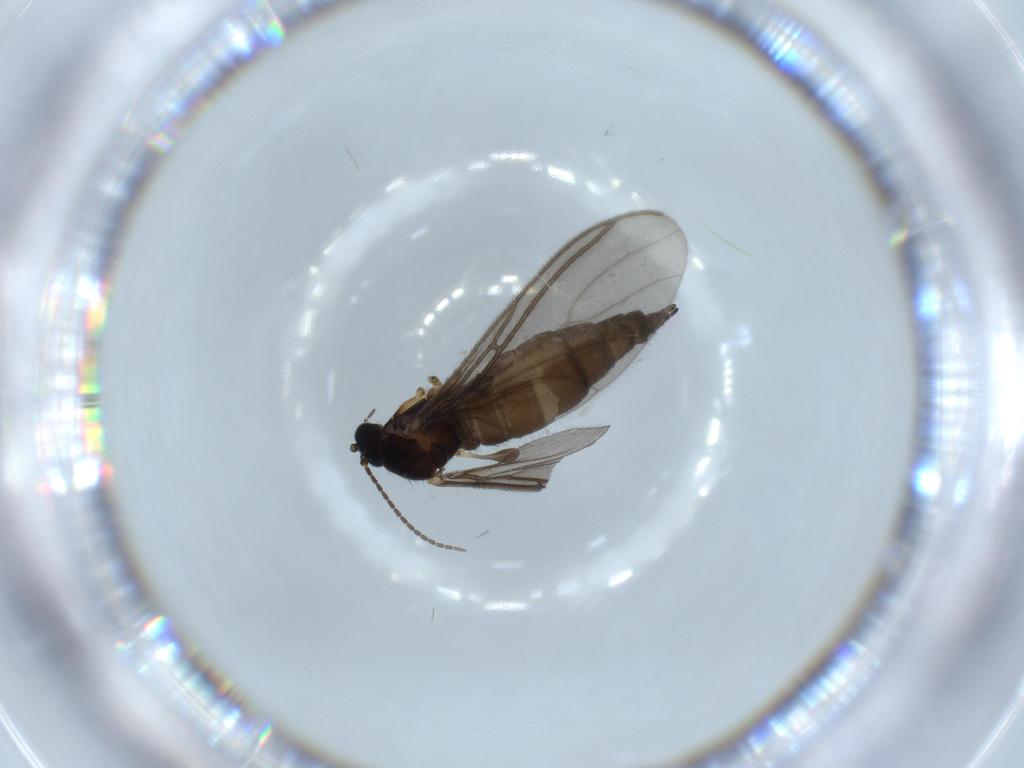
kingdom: Animalia
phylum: Arthropoda
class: Insecta
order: Diptera
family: Sciaridae
